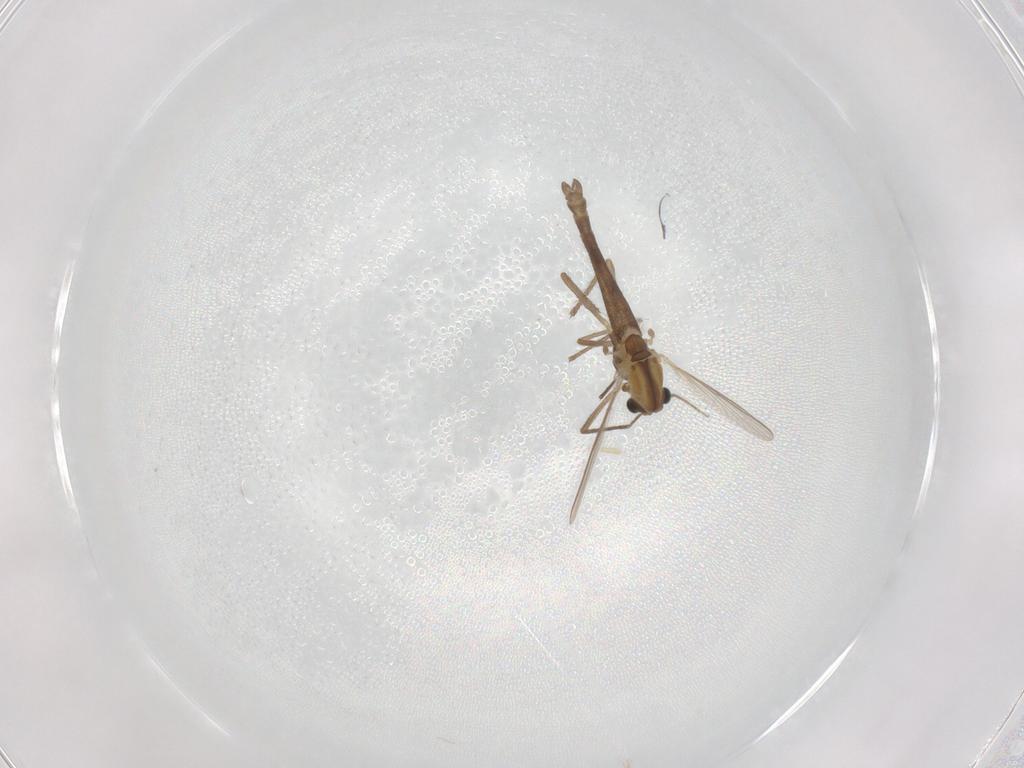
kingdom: Animalia
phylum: Arthropoda
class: Insecta
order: Diptera
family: Chironomidae
